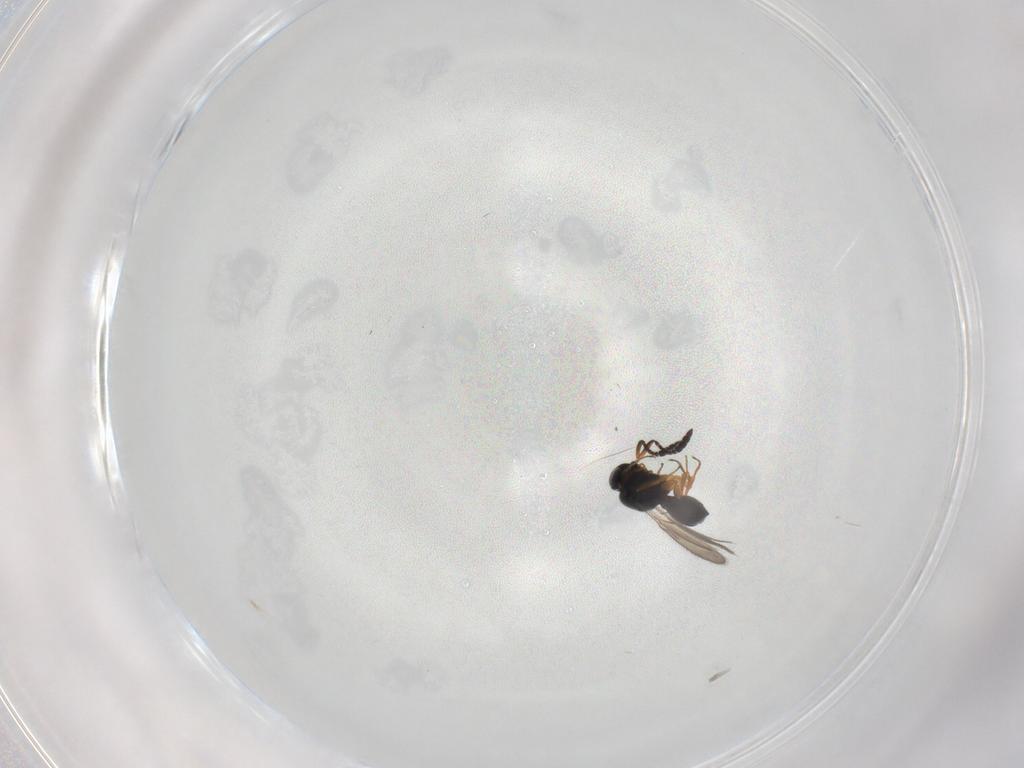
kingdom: Animalia
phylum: Arthropoda
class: Insecta
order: Hymenoptera
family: Scelionidae
